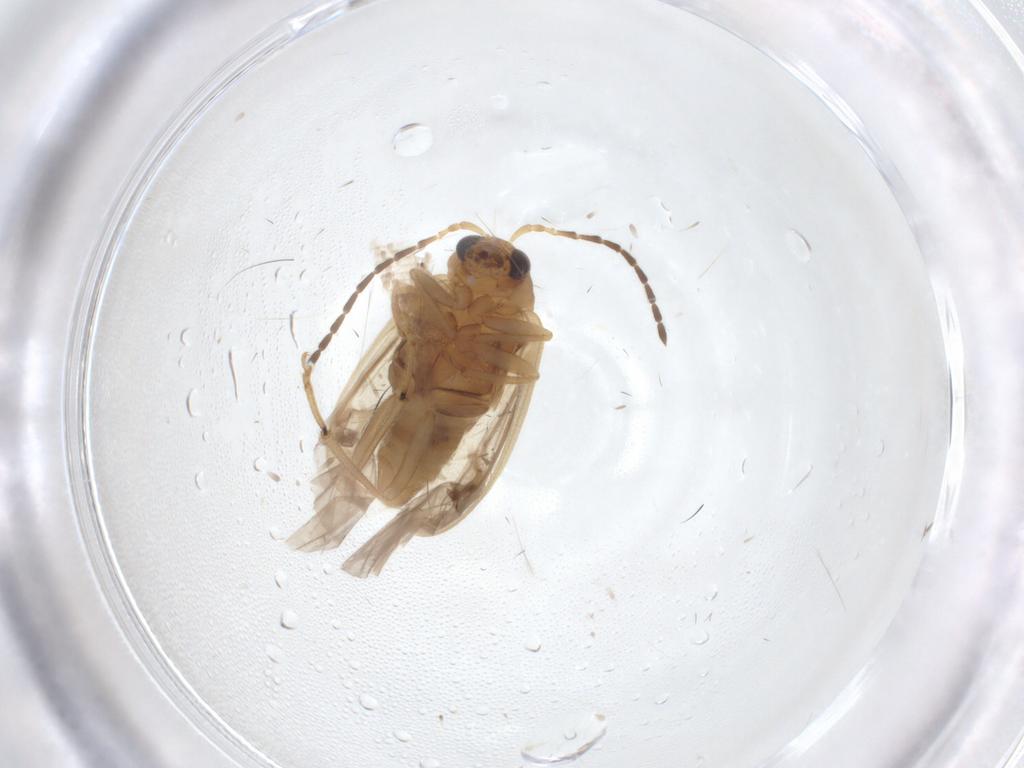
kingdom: Animalia
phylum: Arthropoda
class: Insecta
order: Coleoptera
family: Chrysomelidae
